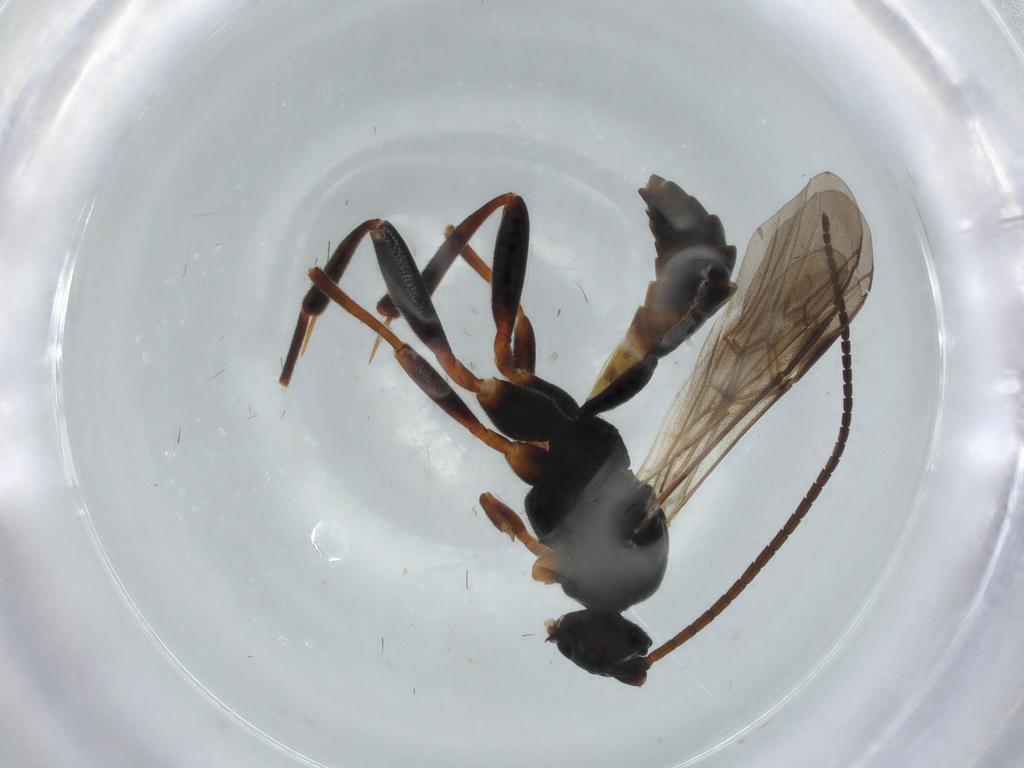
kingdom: Animalia
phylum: Arthropoda
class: Insecta
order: Hymenoptera
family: Braconidae
